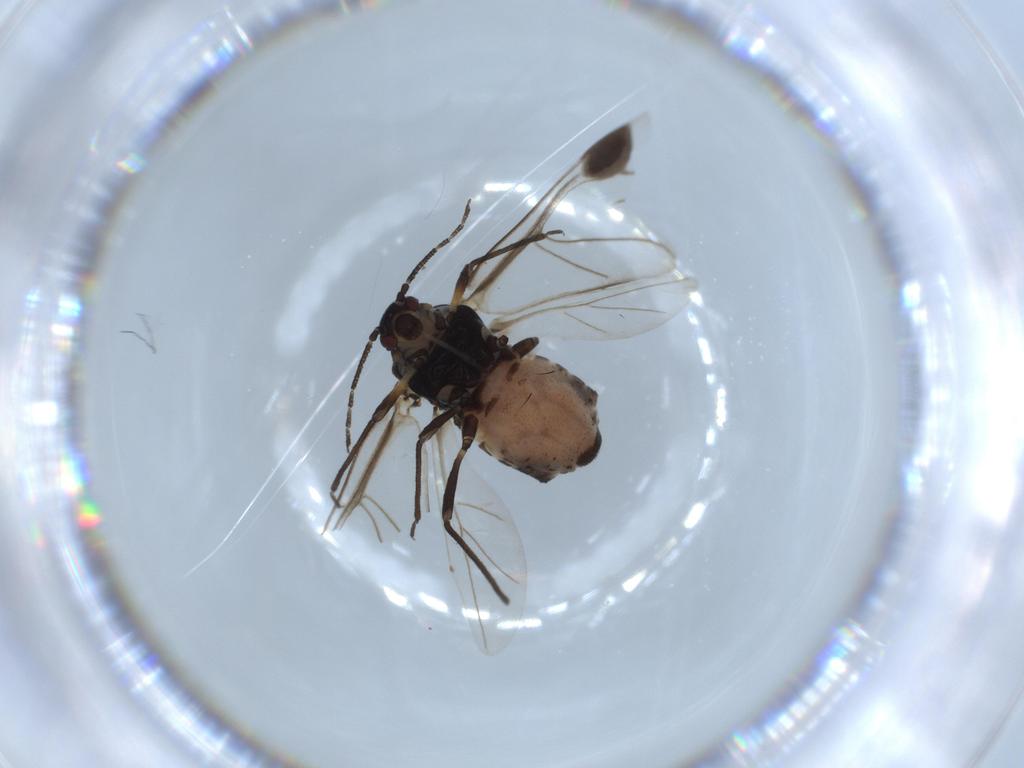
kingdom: Animalia
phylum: Arthropoda
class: Insecta
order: Hemiptera
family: Aphididae
